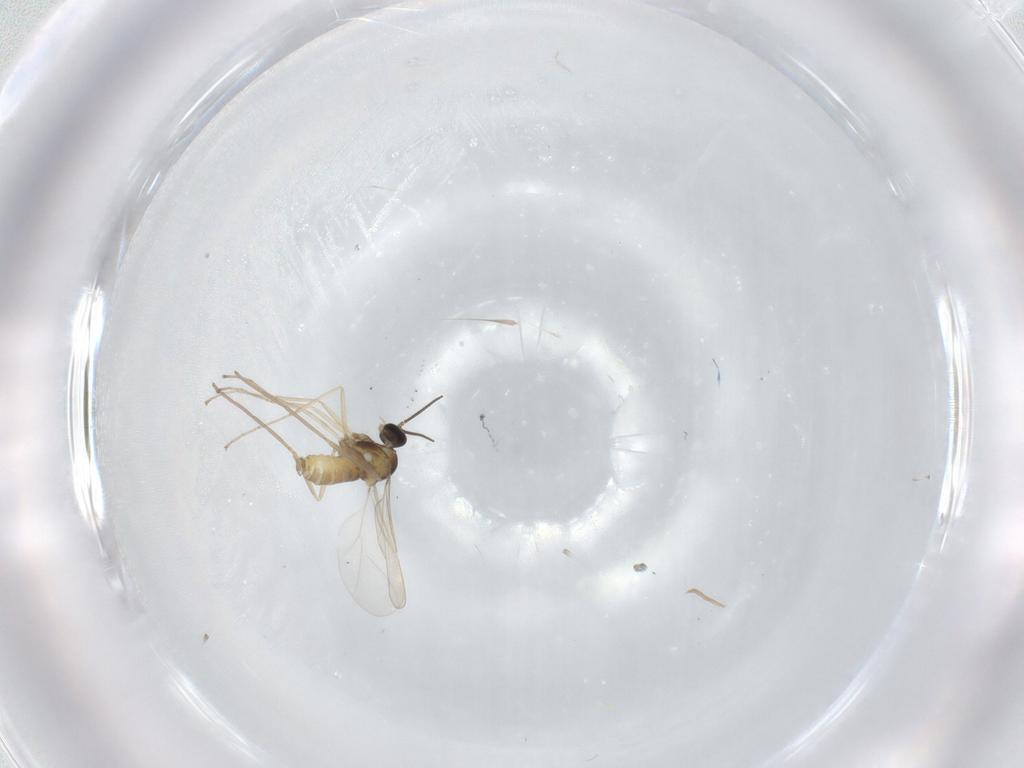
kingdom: Animalia
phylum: Arthropoda
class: Insecta
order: Diptera
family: Cecidomyiidae
